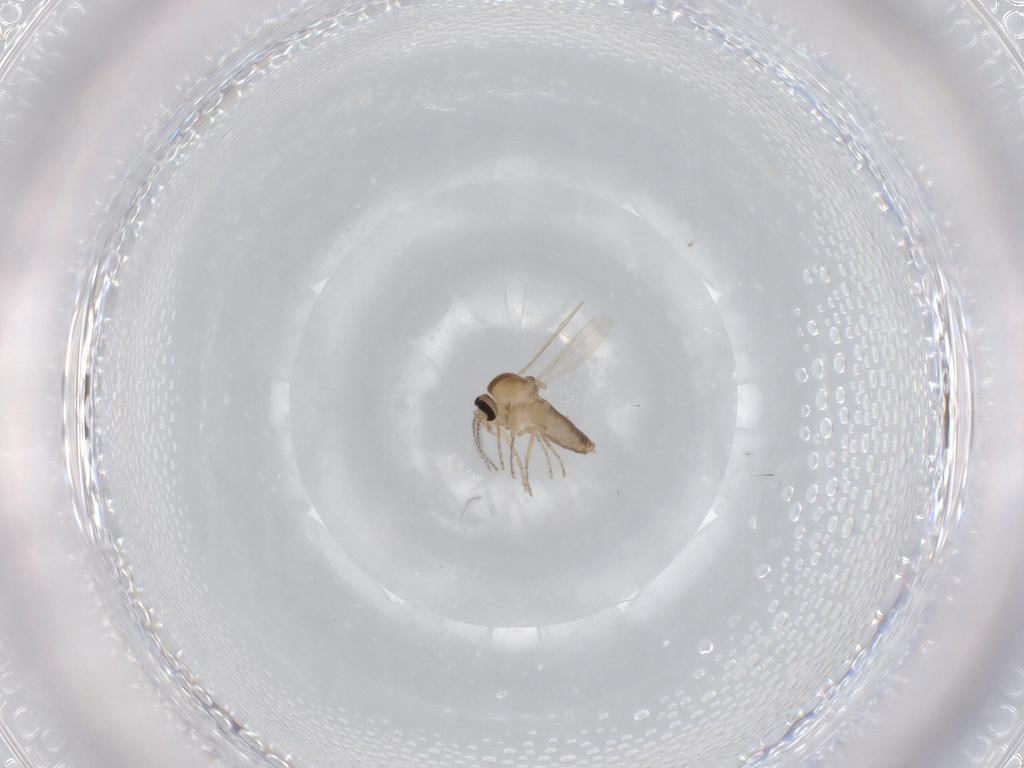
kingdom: Animalia
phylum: Arthropoda
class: Insecta
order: Diptera
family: Ceratopogonidae
